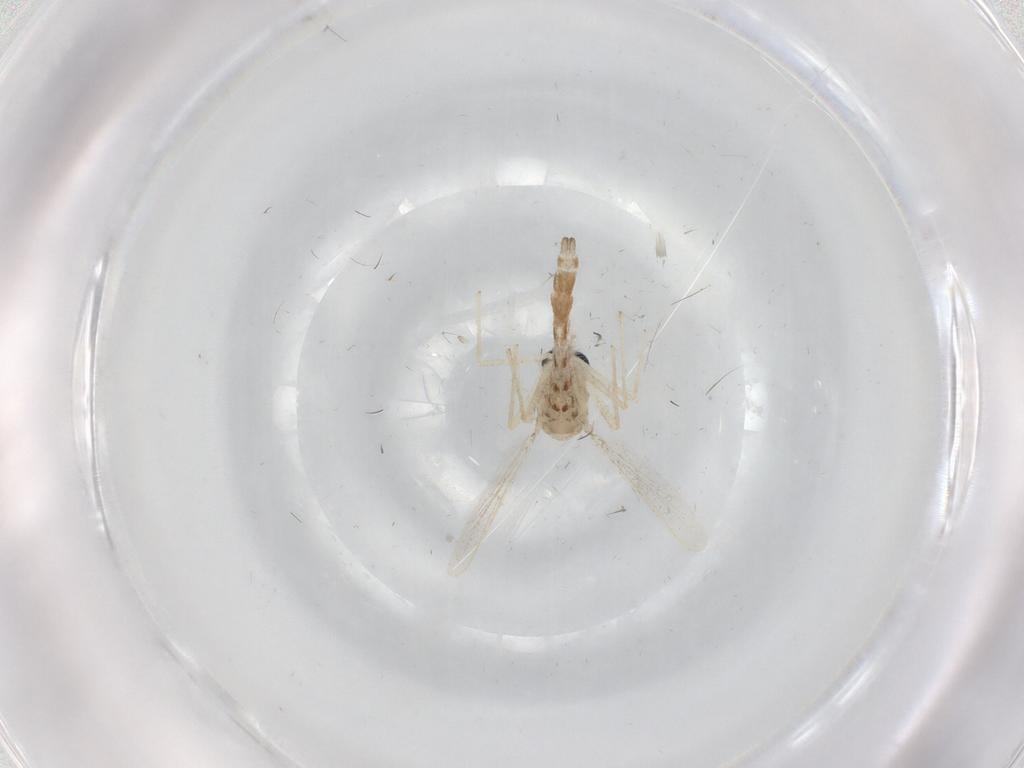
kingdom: Animalia
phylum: Arthropoda
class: Insecta
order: Diptera
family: Chironomidae
